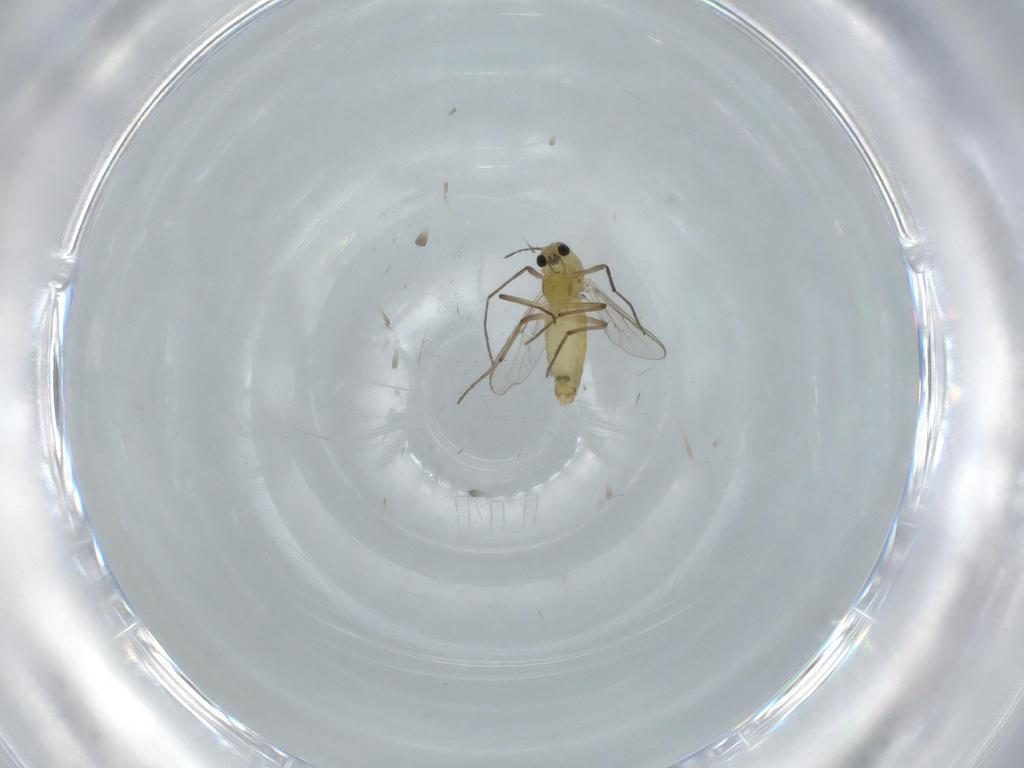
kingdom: Animalia
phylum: Arthropoda
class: Insecta
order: Diptera
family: Chironomidae
